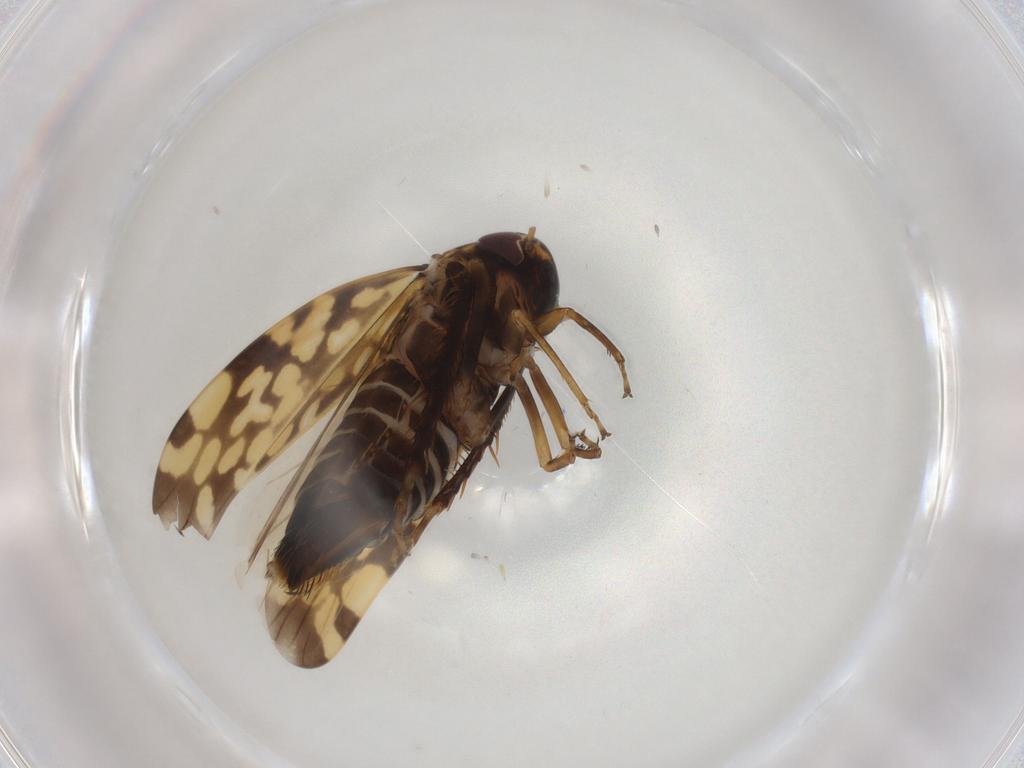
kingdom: Animalia
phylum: Arthropoda
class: Insecta
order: Hemiptera
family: Cicadellidae
